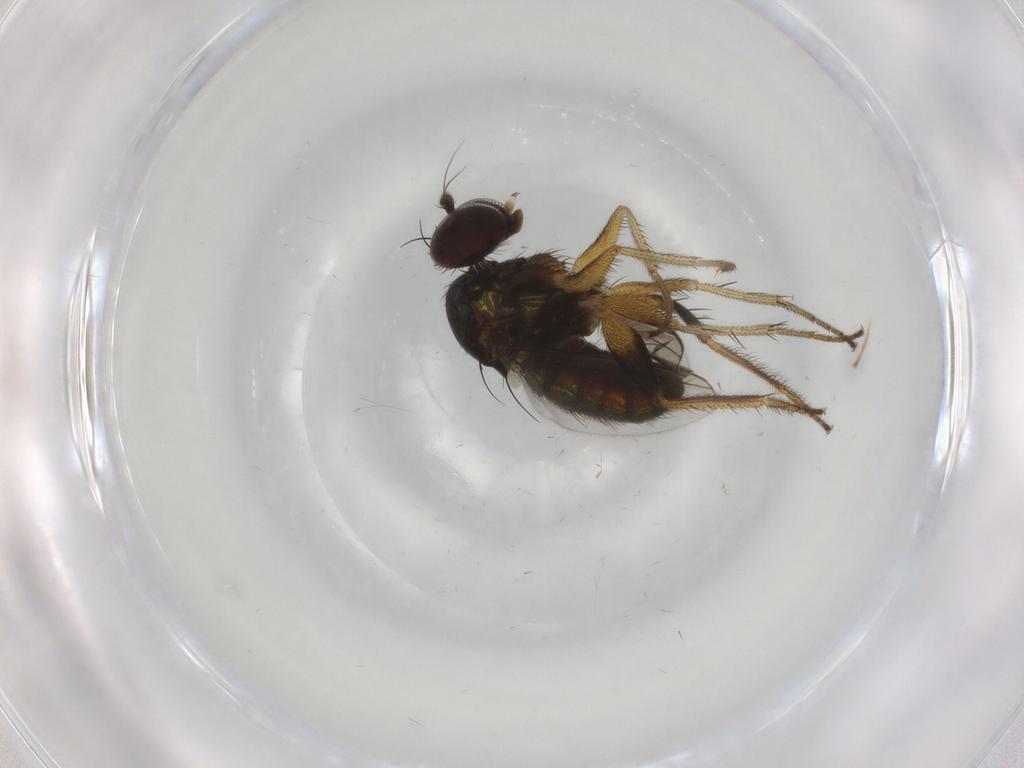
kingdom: Animalia
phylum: Arthropoda
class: Insecta
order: Diptera
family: Dolichopodidae
